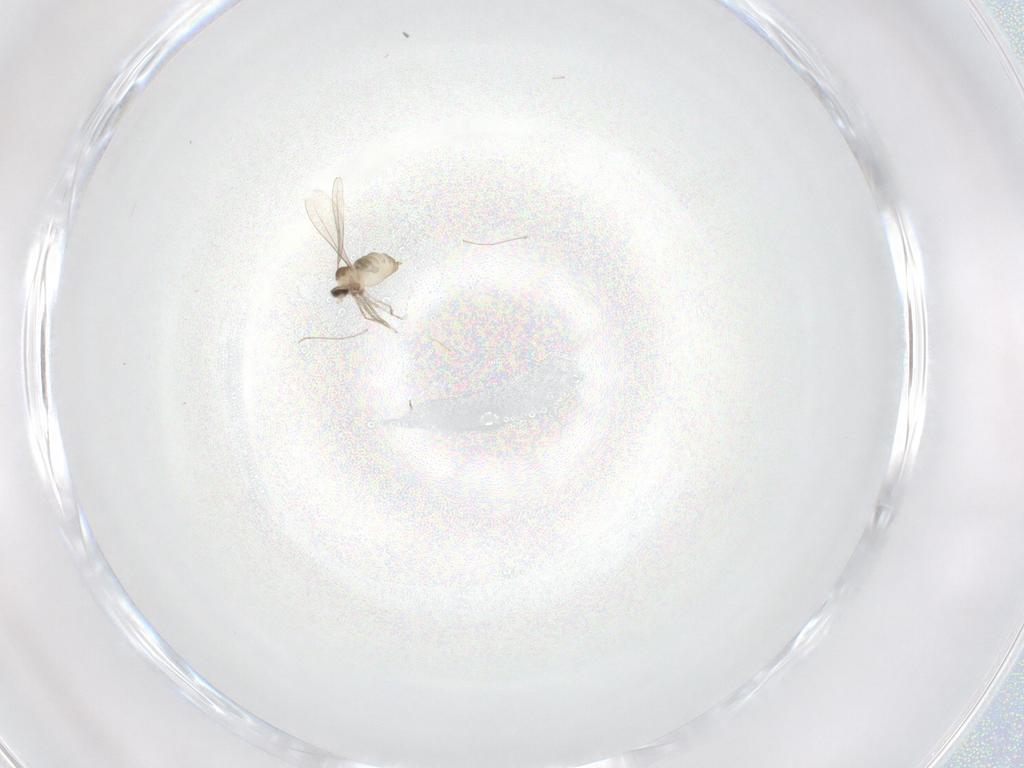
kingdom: Animalia
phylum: Arthropoda
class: Insecta
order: Diptera
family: Cecidomyiidae
